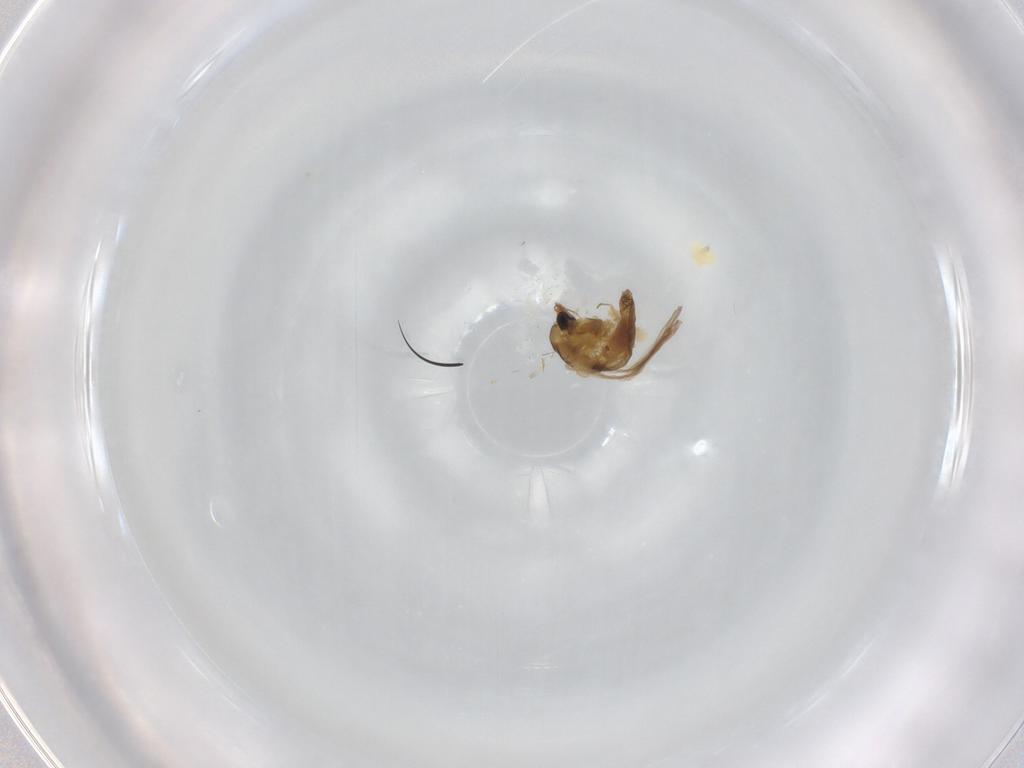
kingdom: Animalia
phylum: Arthropoda
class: Insecta
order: Diptera
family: Chironomidae
